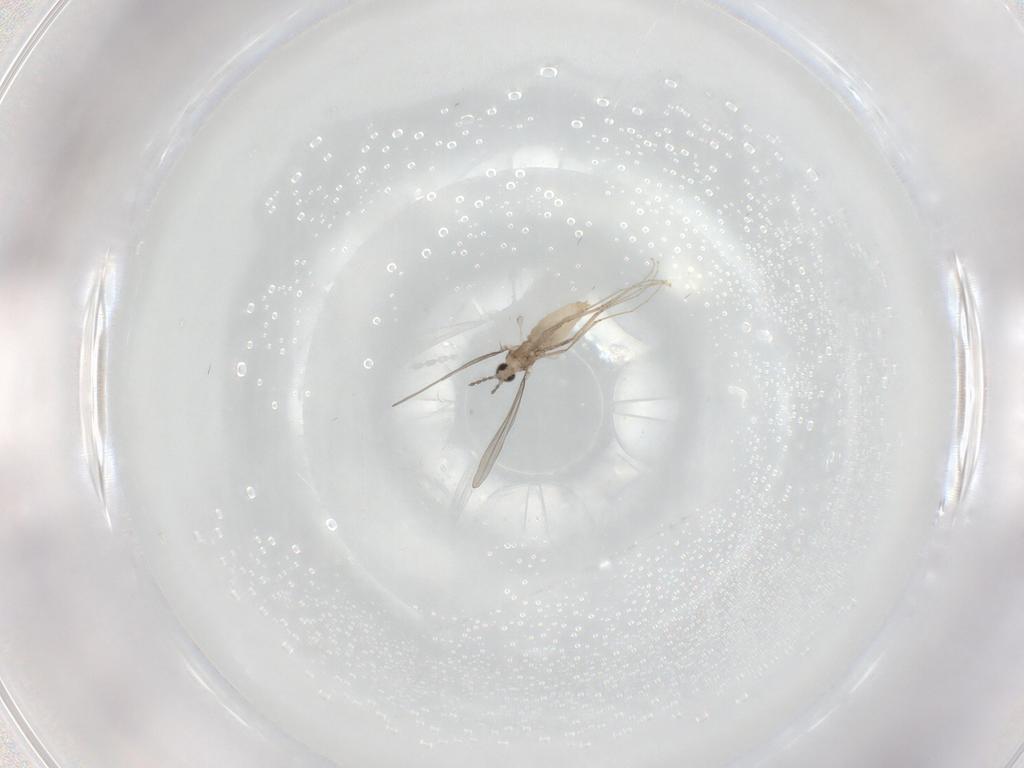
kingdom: Animalia
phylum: Arthropoda
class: Insecta
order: Diptera
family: Cecidomyiidae
